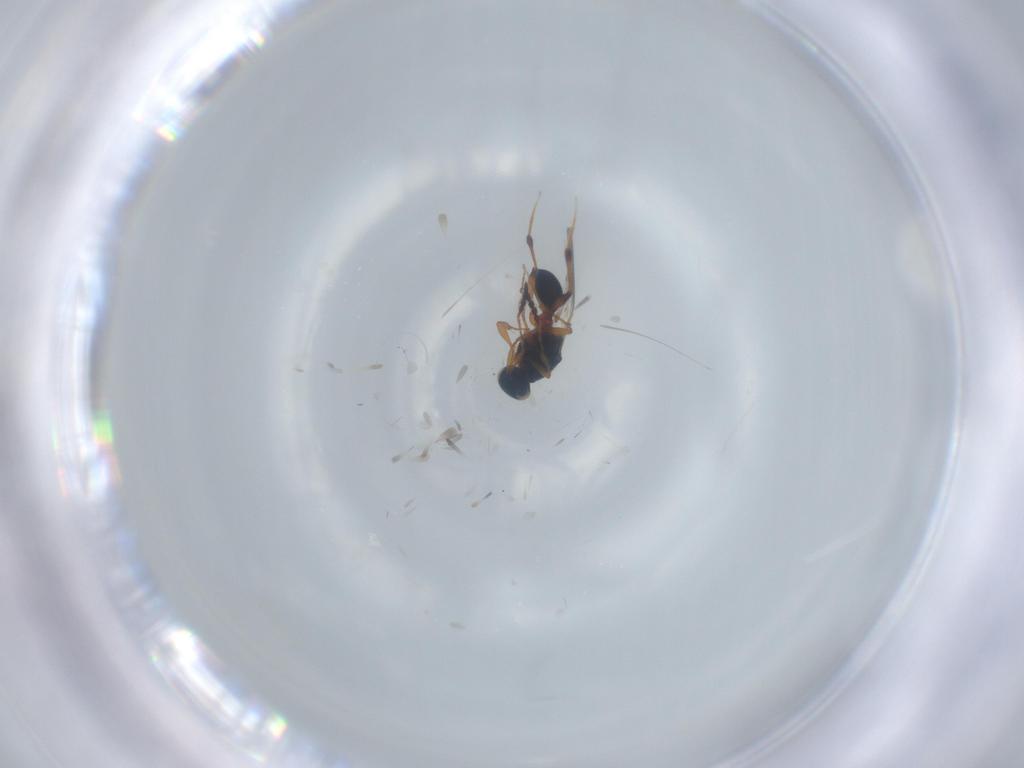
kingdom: Animalia
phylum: Arthropoda
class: Insecta
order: Hymenoptera
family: Platygastridae
